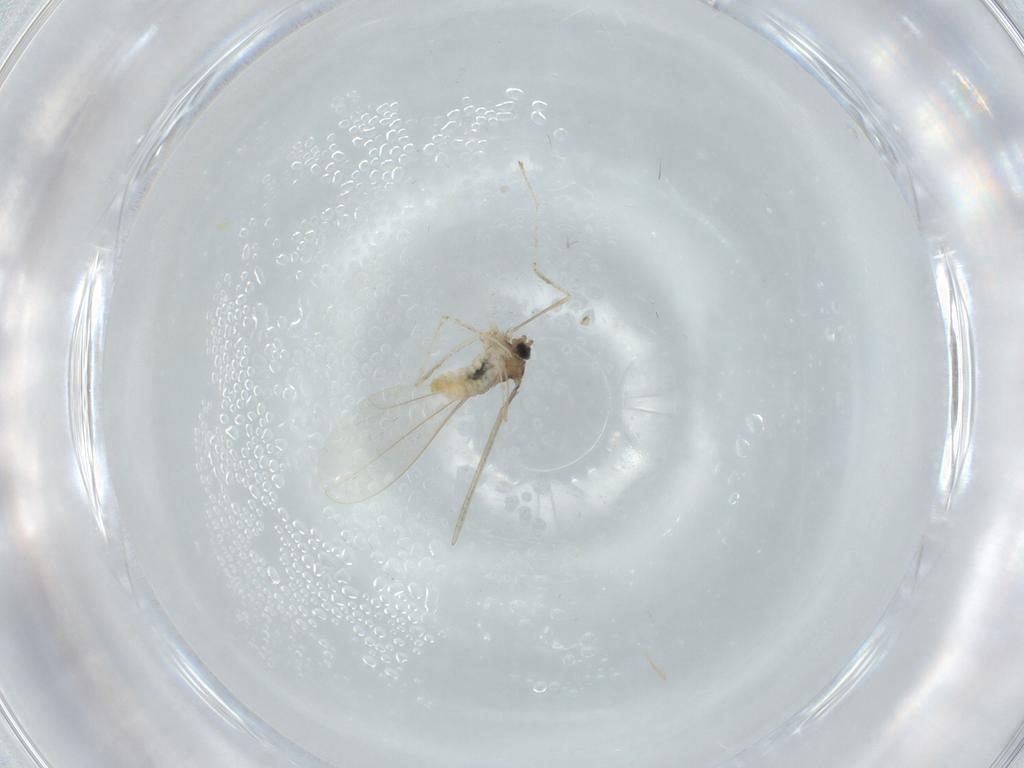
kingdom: Animalia
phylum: Arthropoda
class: Insecta
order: Diptera
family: Cecidomyiidae
